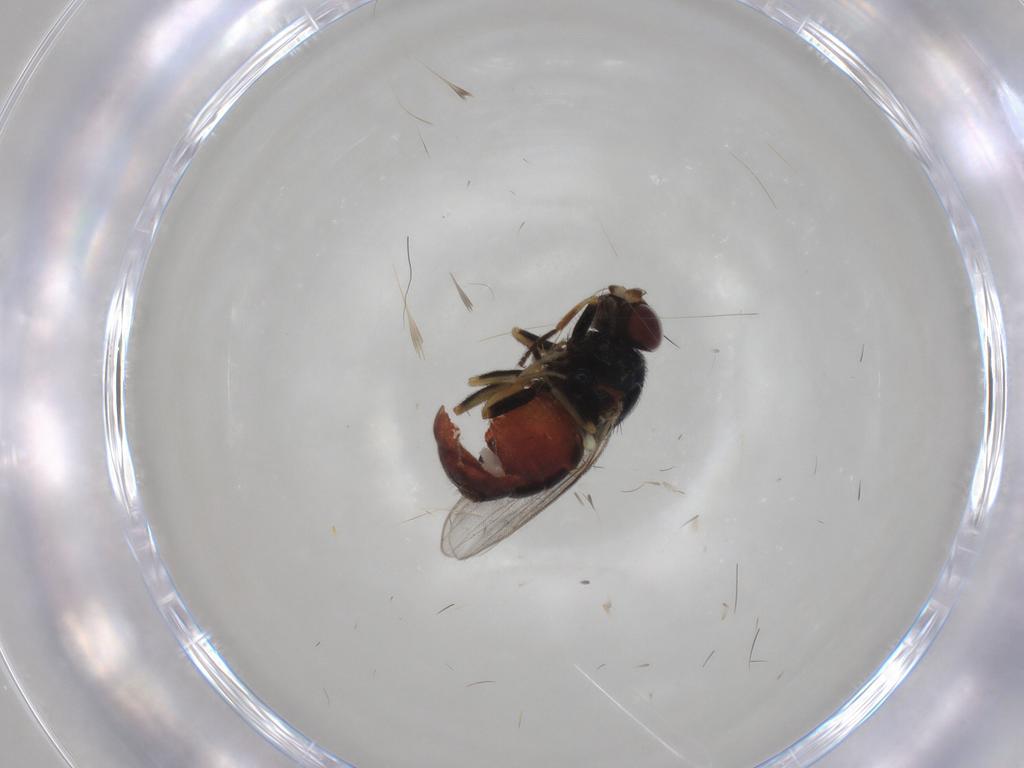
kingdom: Animalia
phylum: Arthropoda
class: Insecta
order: Diptera
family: Chloropidae
